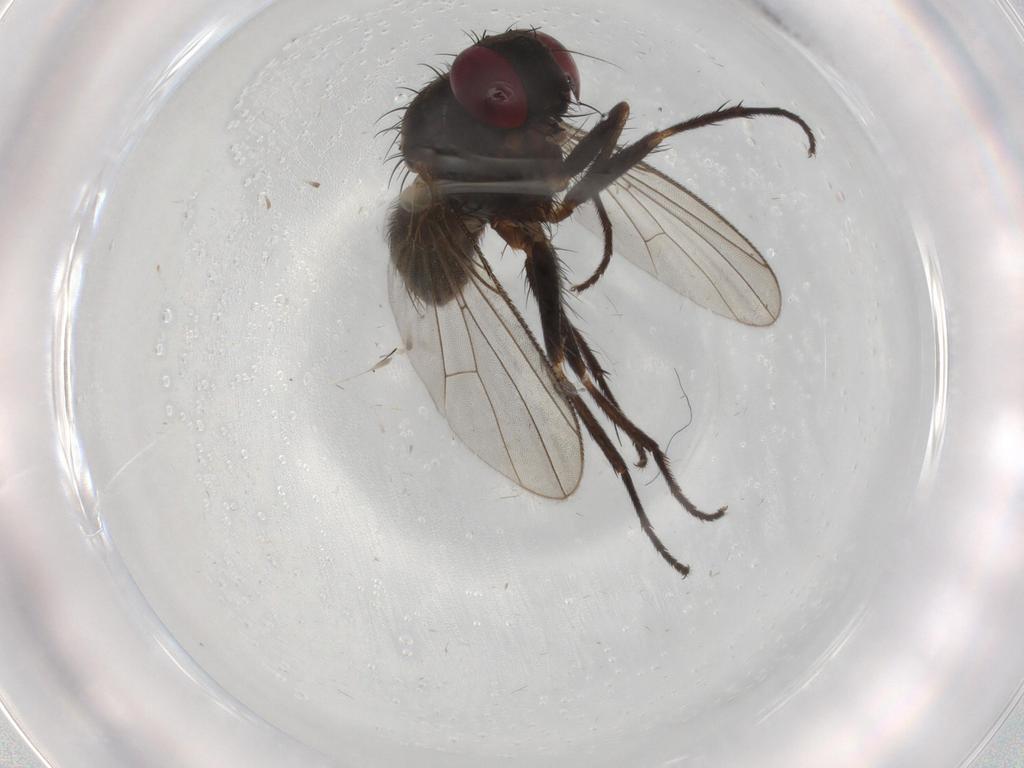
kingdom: Animalia
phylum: Arthropoda
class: Insecta
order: Diptera
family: Muscidae
